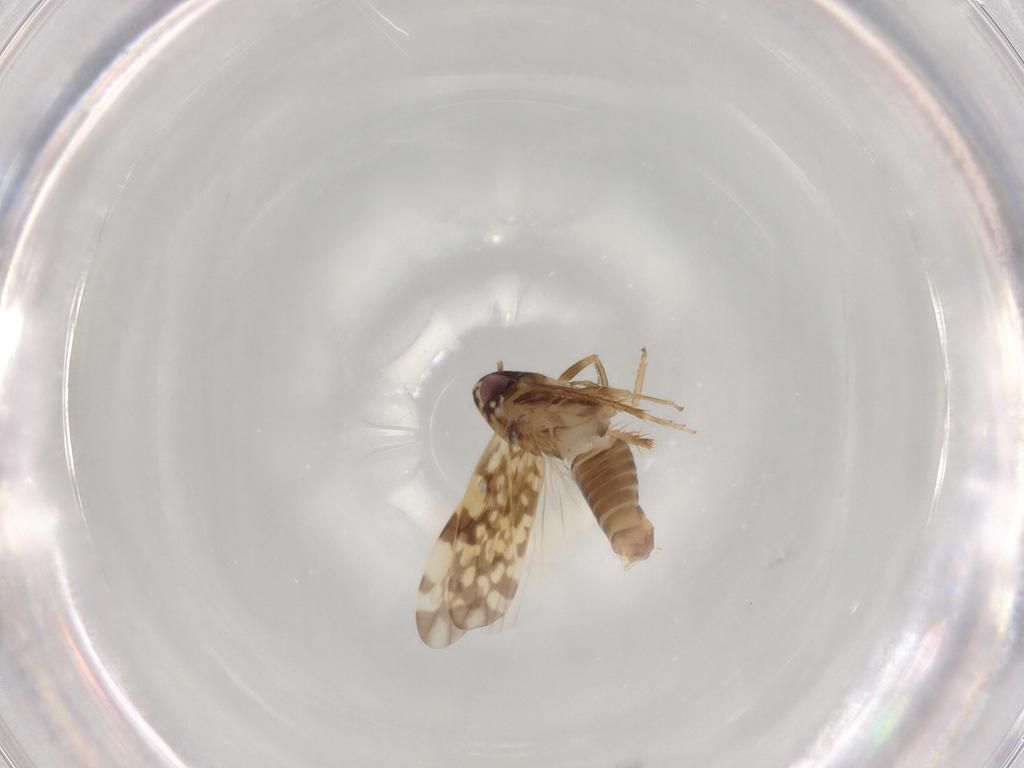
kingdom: Animalia
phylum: Arthropoda
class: Insecta
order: Hemiptera
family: Cicadellidae
